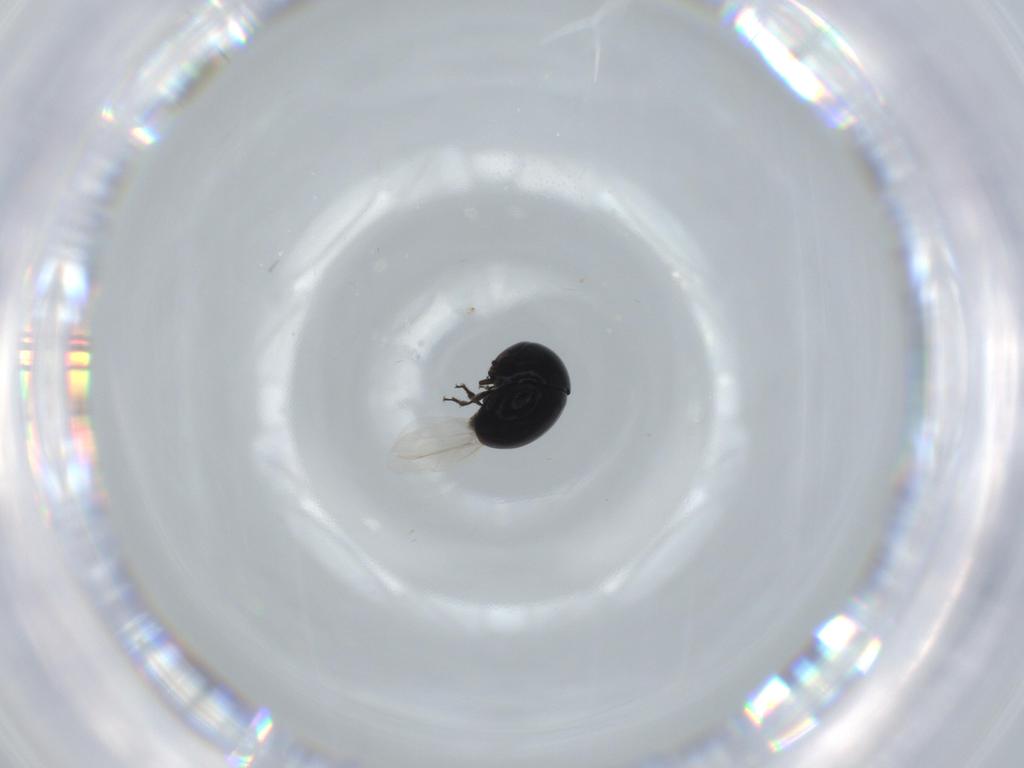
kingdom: Animalia
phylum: Arthropoda
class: Insecta
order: Coleoptera
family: Cybocephalidae
